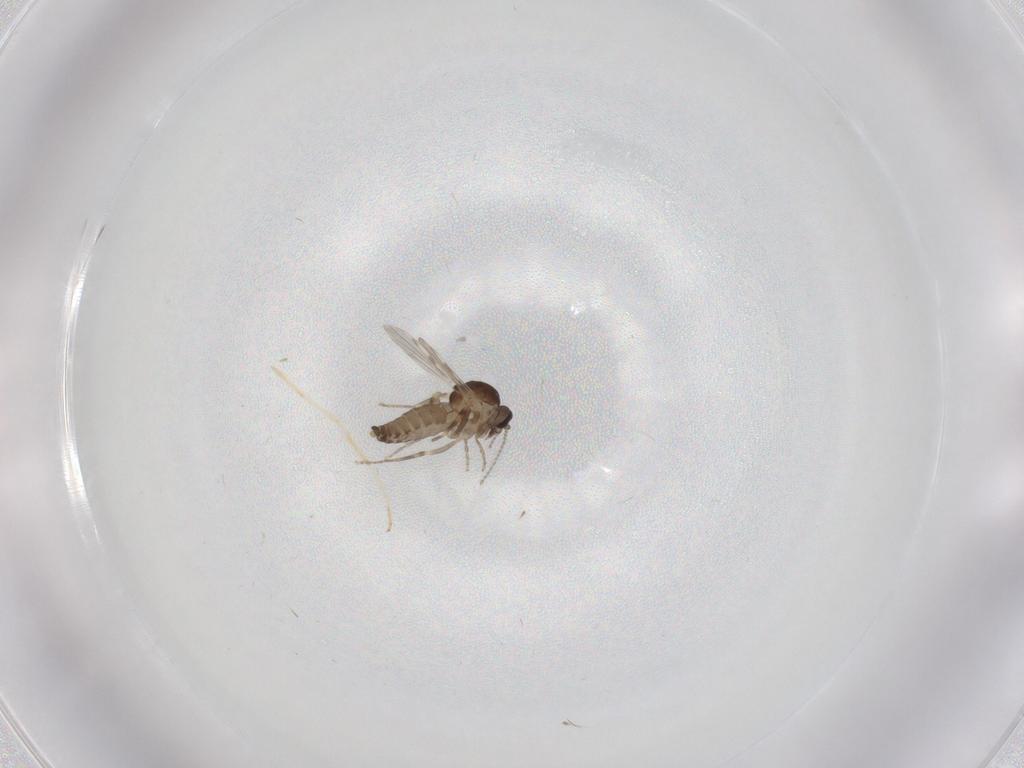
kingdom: Animalia
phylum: Arthropoda
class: Insecta
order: Diptera
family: Chironomidae
